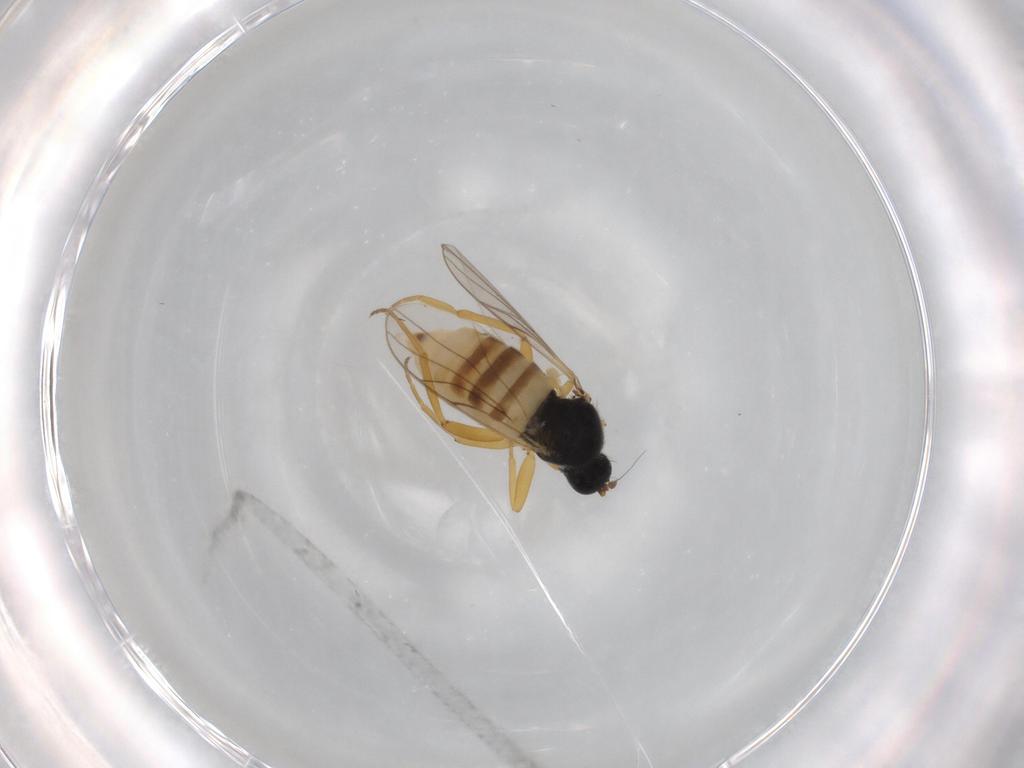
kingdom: Animalia
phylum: Arthropoda
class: Insecta
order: Diptera
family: Hybotidae
